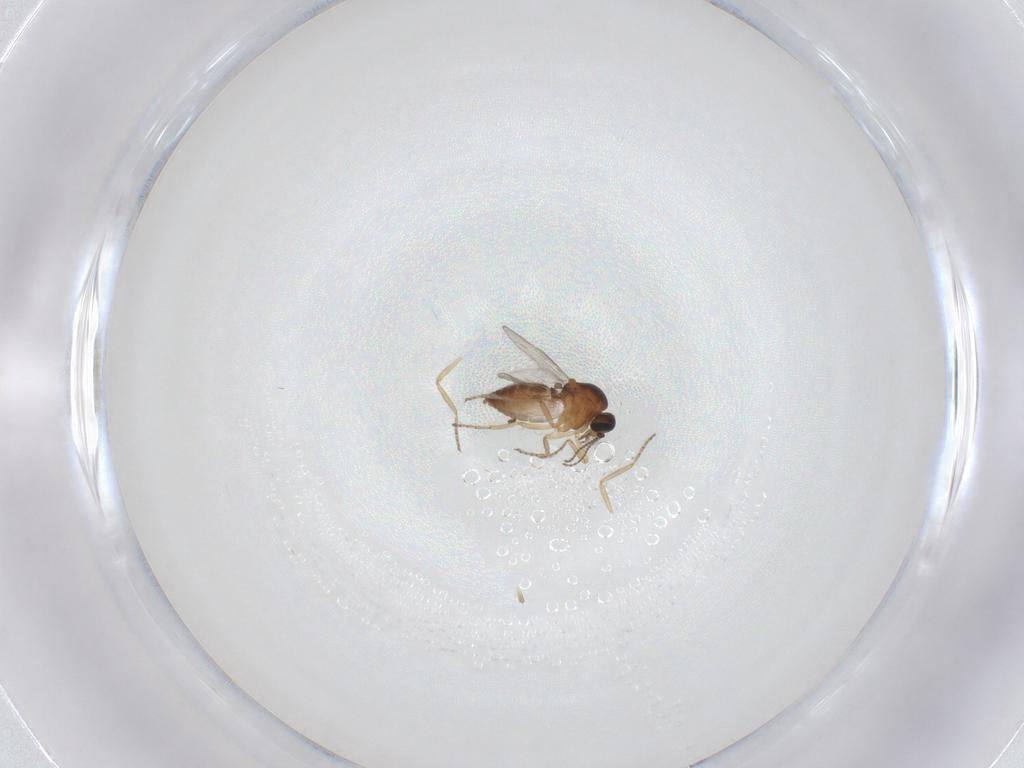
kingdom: Animalia
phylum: Arthropoda
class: Insecta
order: Diptera
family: Ceratopogonidae
